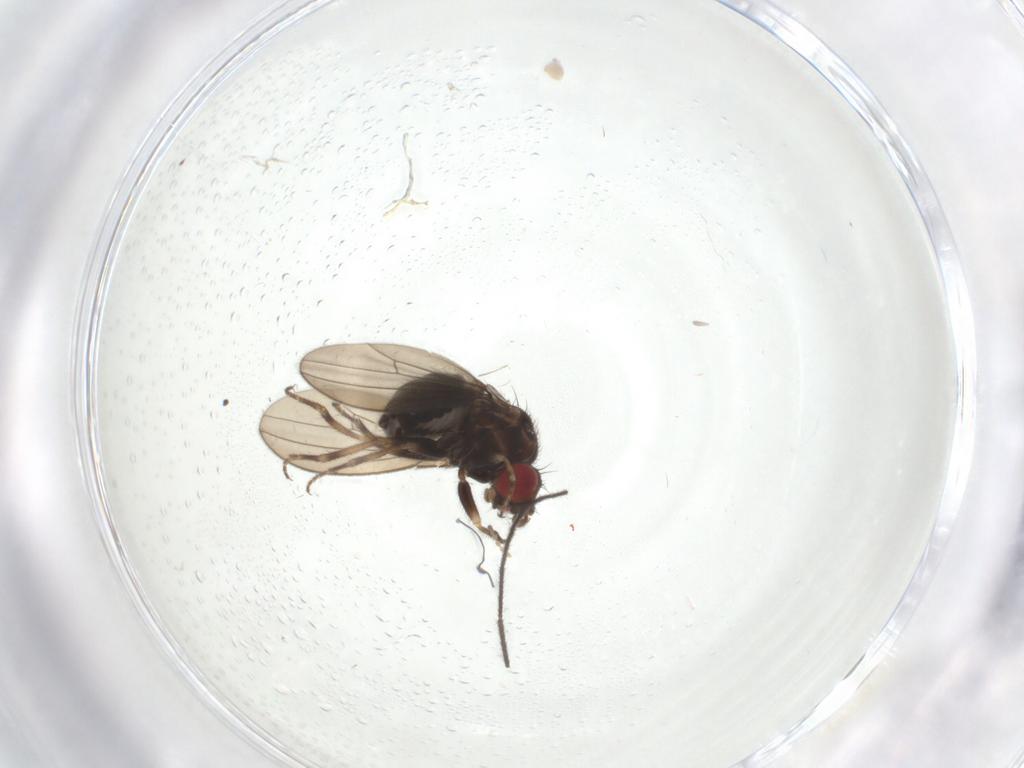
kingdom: Animalia
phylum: Arthropoda
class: Insecta
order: Diptera
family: Drosophilidae
